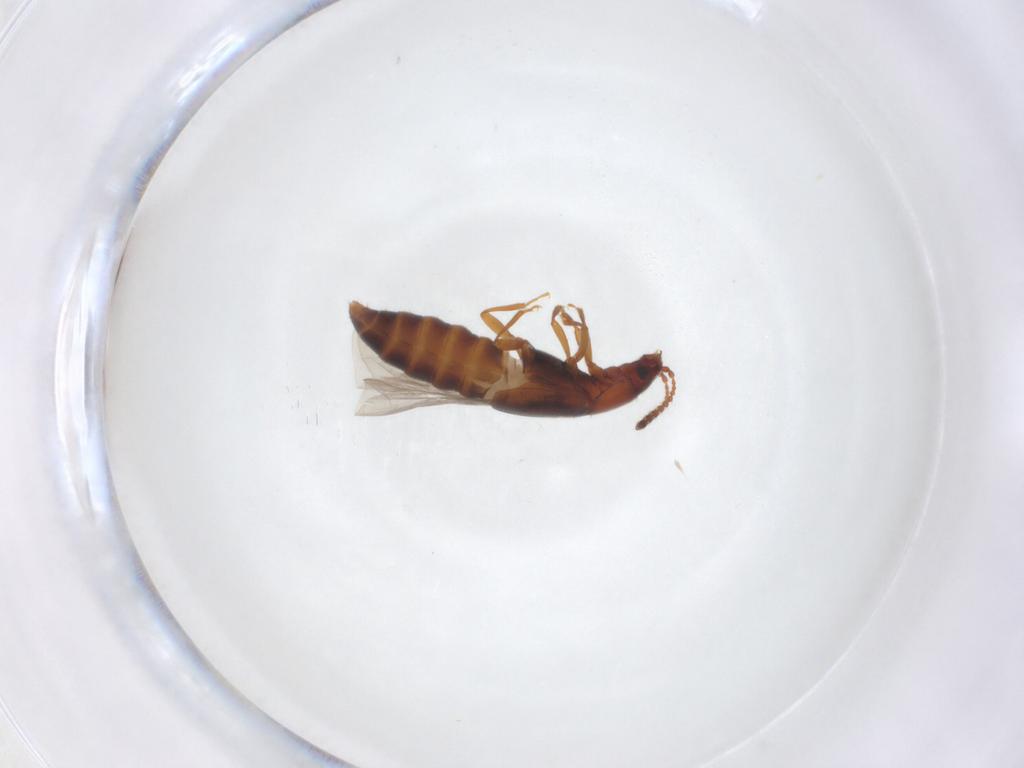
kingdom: Animalia
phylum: Arthropoda
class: Insecta
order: Coleoptera
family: Staphylinidae
